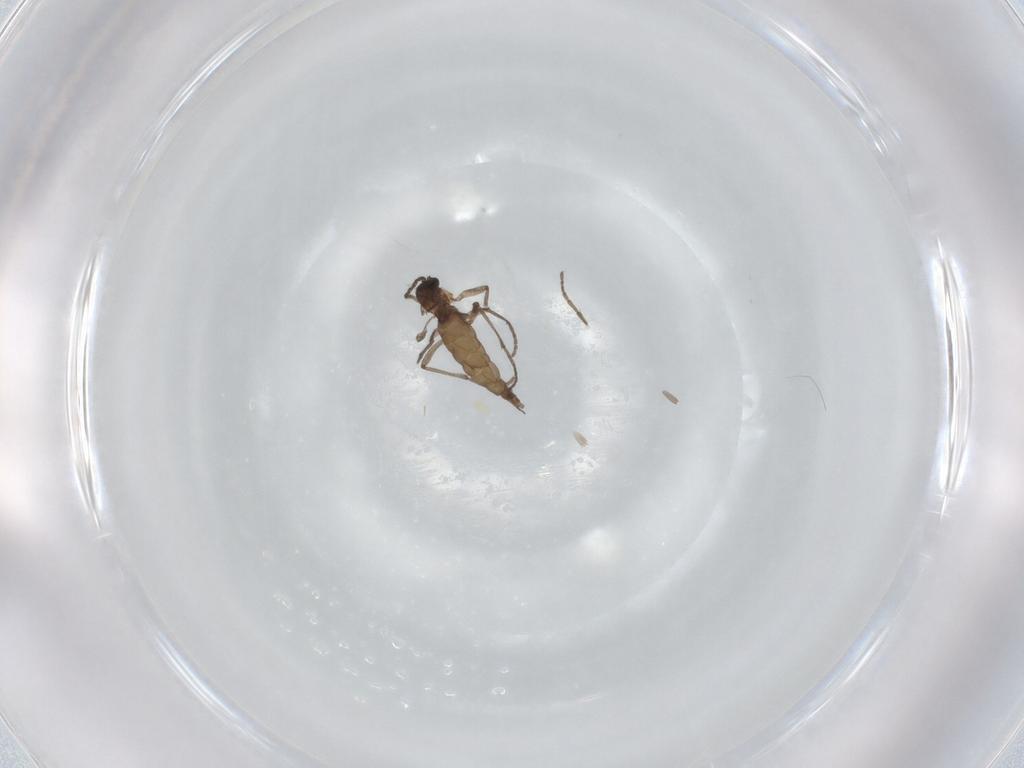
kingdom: Animalia
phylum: Arthropoda
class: Insecta
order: Diptera
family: Sciaridae
